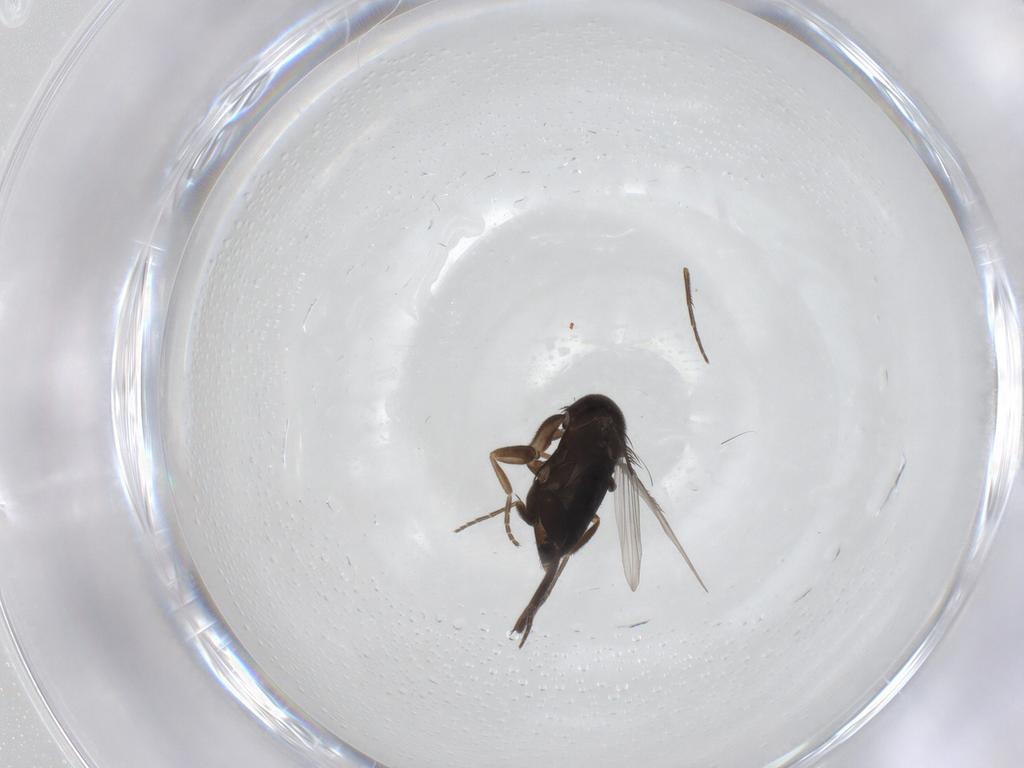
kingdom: Animalia
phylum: Arthropoda
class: Insecta
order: Diptera
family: Phoridae
